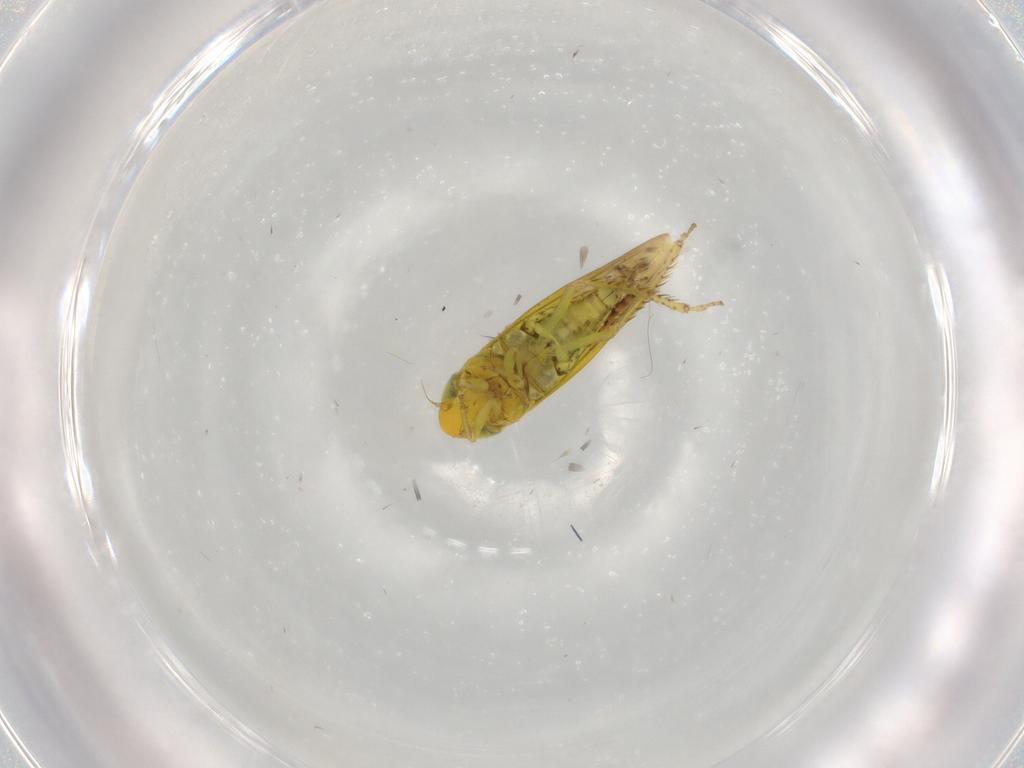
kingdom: Animalia
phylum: Arthropoda
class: Insecta
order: Hemiptera
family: Cicadellidae
